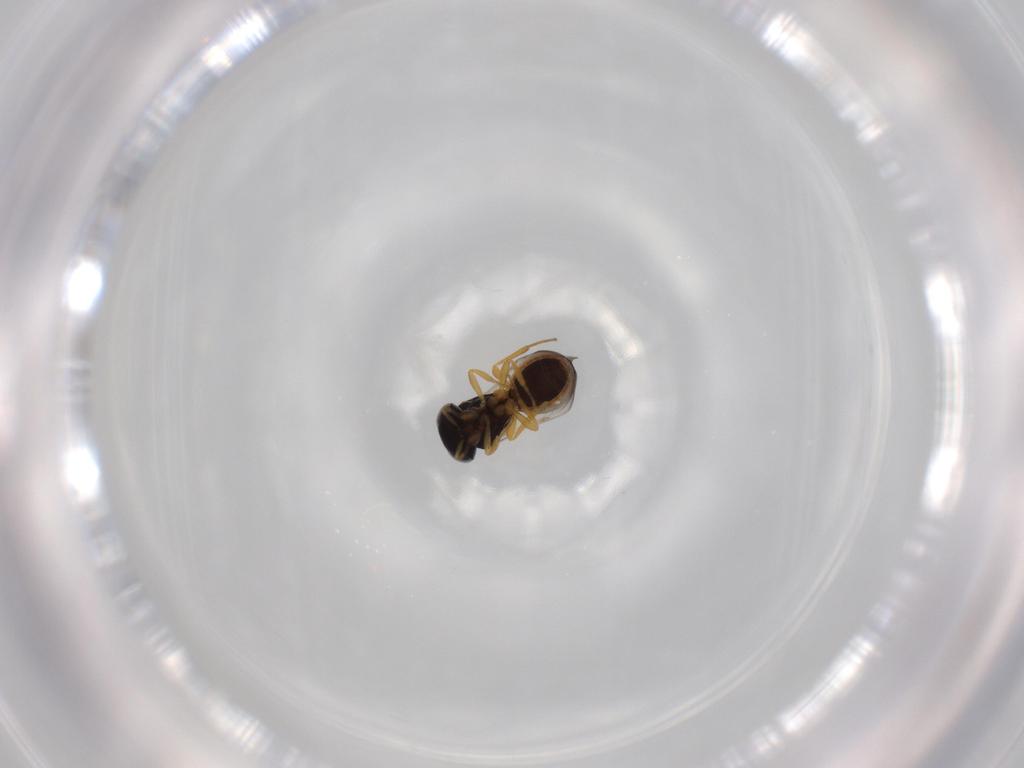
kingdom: Animalia
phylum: Arthropoda
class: Insecta
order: Hymenoptera
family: Scelionidae
